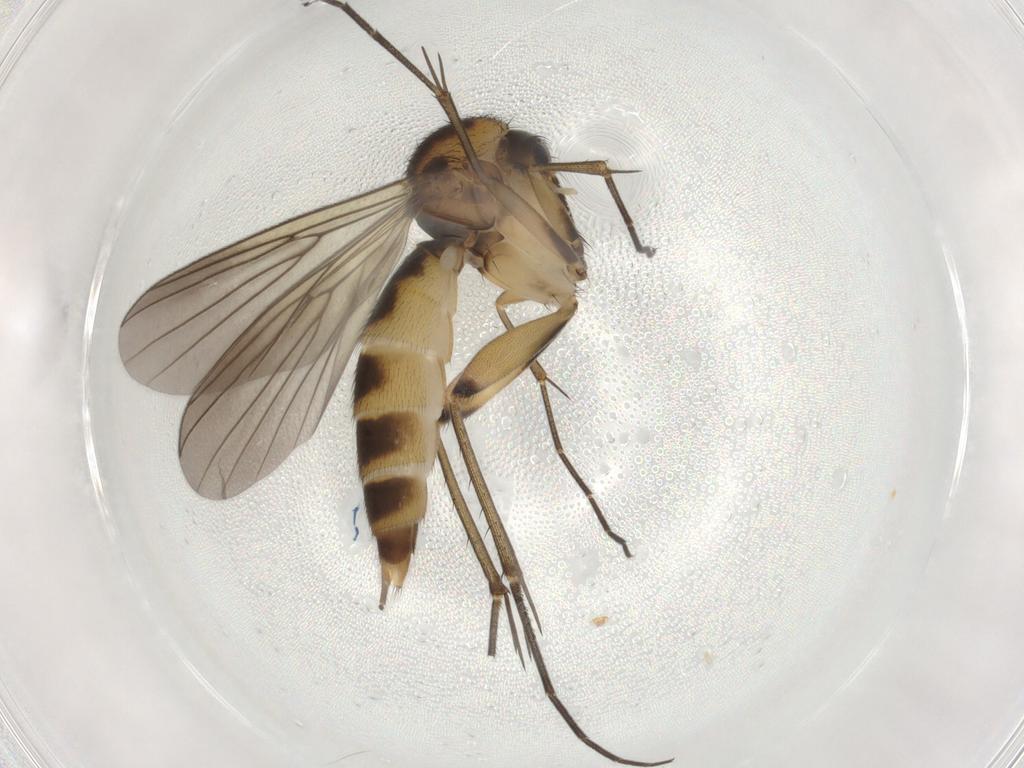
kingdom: Animalia
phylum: Arthropoda
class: Insecta
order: Diptera
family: Mycetophilidae
